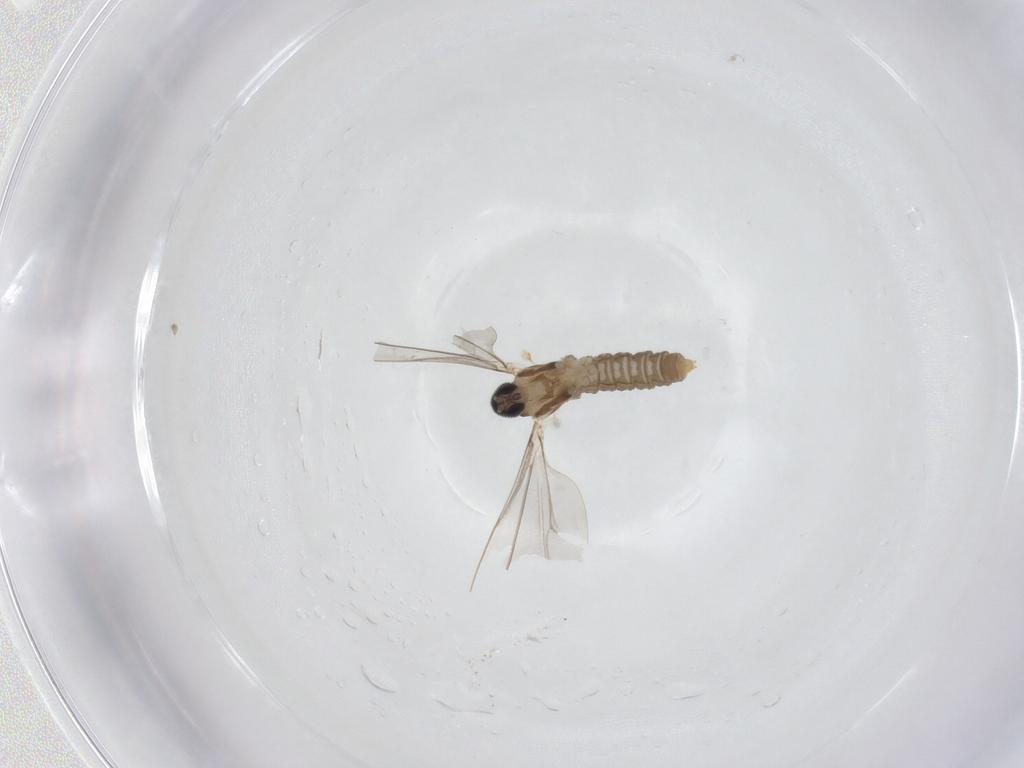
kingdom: Animalia
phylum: Arthropoda
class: Insecta
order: Diptera
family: Cecidomyiidae
